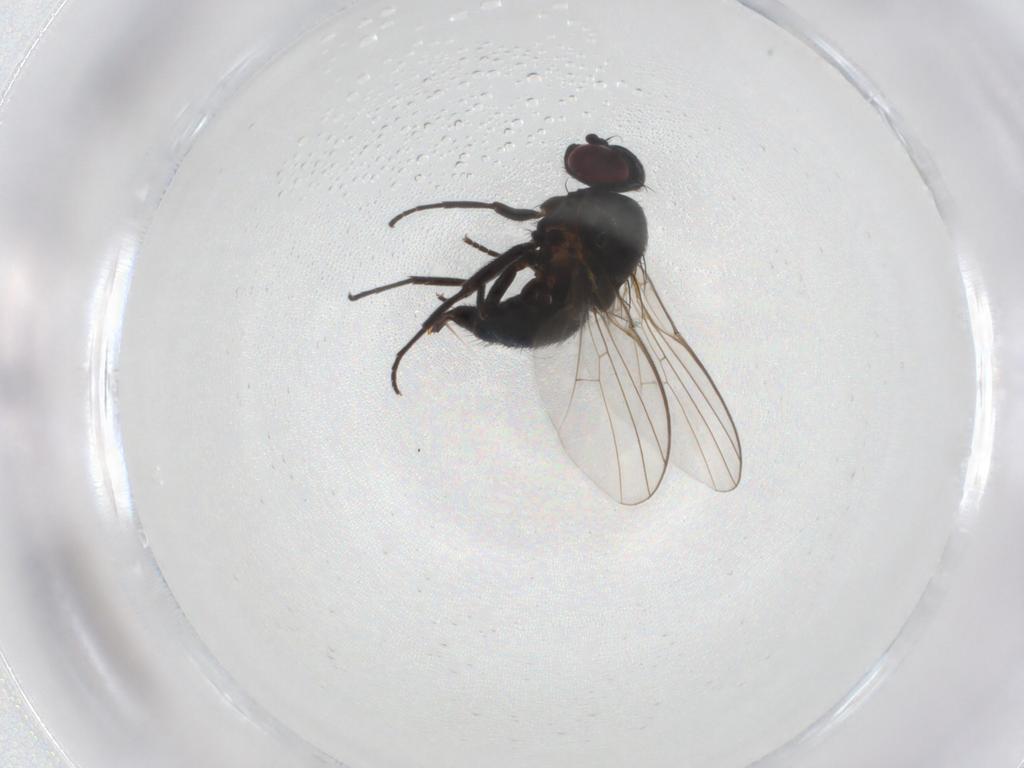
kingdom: Animalia
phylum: Arthropoda
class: Insecta
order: Diptera
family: Agromyzidae
